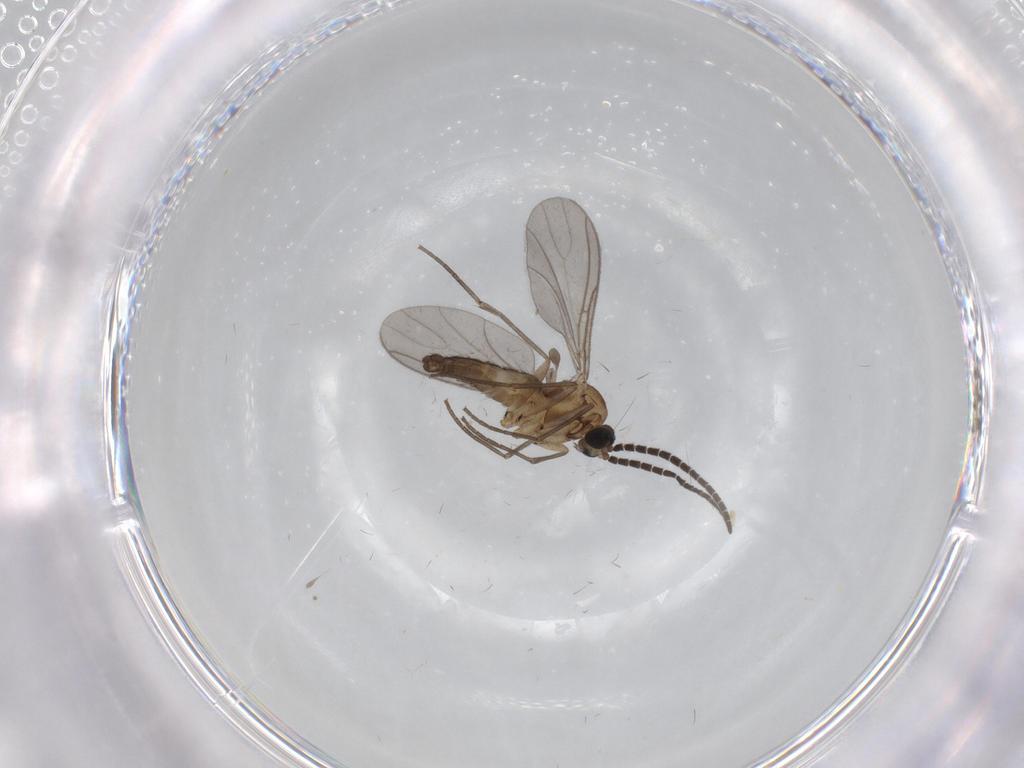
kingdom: Animalia
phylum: Arthropoda
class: Insecta
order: Diptera
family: Sciaridae
